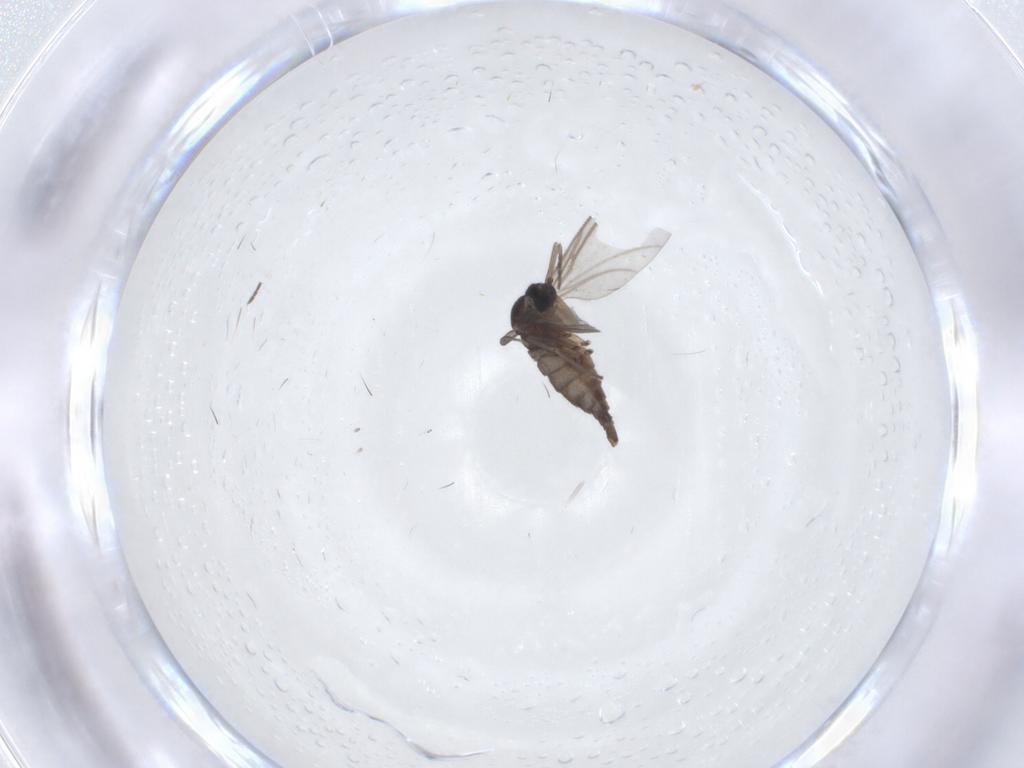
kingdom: Animalia
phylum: Arthropoda
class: Insecta
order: Diptera
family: Sciaridae
